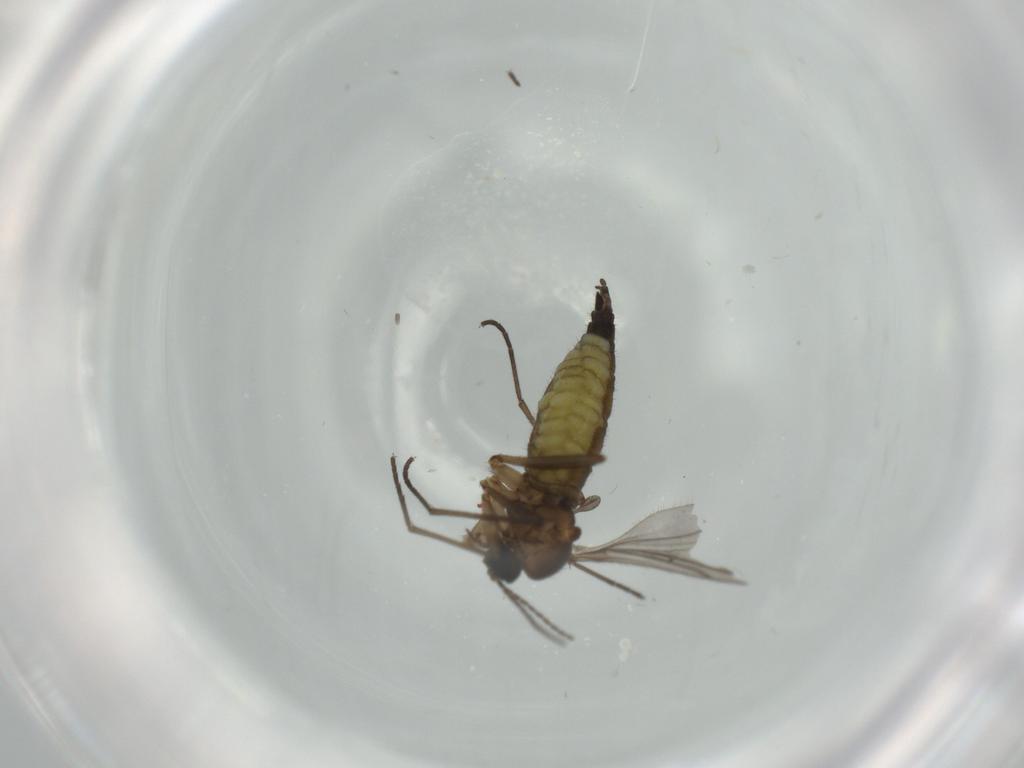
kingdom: Animalia
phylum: Arthropoda
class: Insecta
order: Diptera
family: Sciaridae
